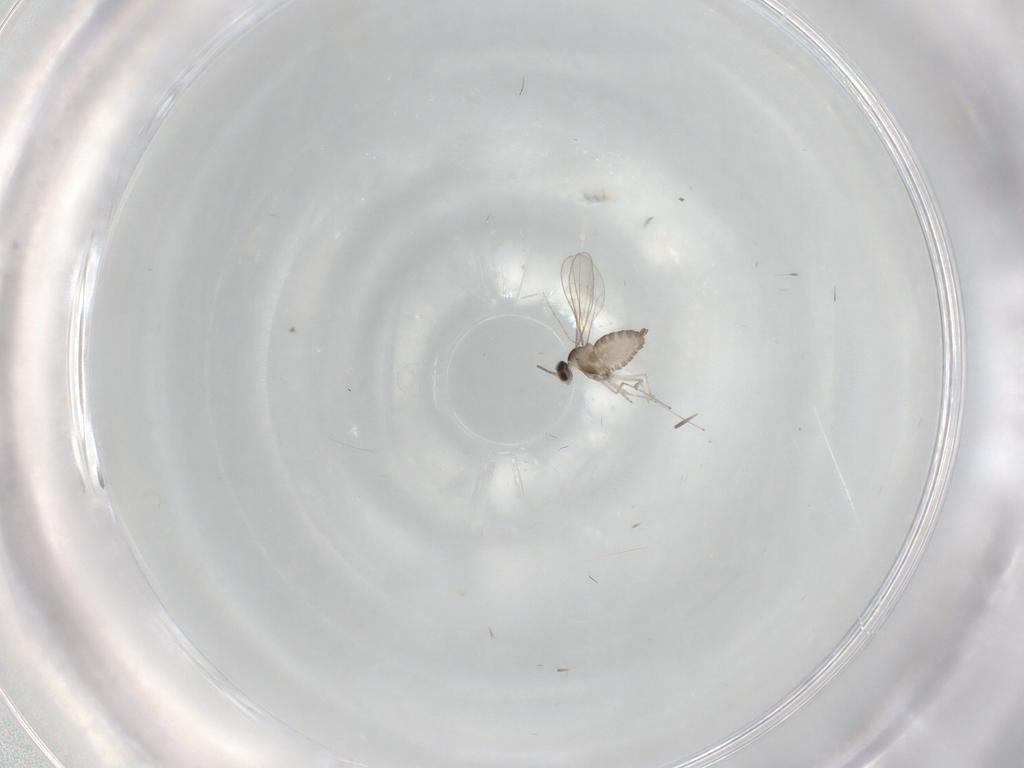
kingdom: Animalia
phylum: Arthropoda
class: Insecta
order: Diptera
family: Cecidomyiidae
